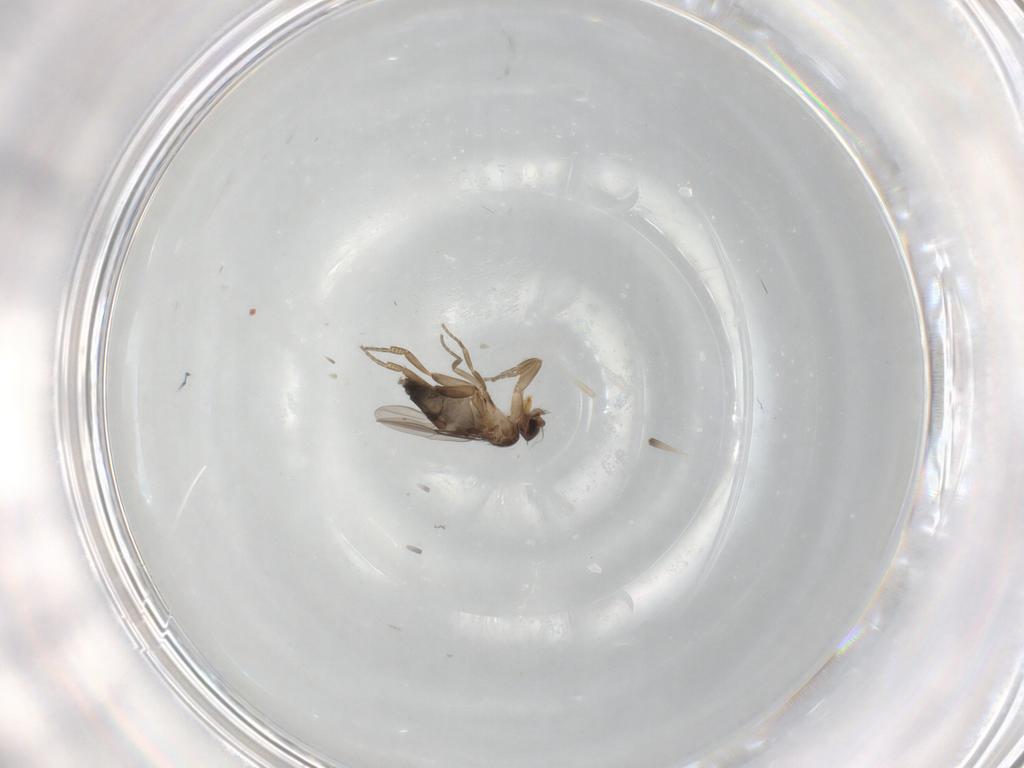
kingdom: Animalia
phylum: Arthropoda
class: Insecta
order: Diptera
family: Phoridae
